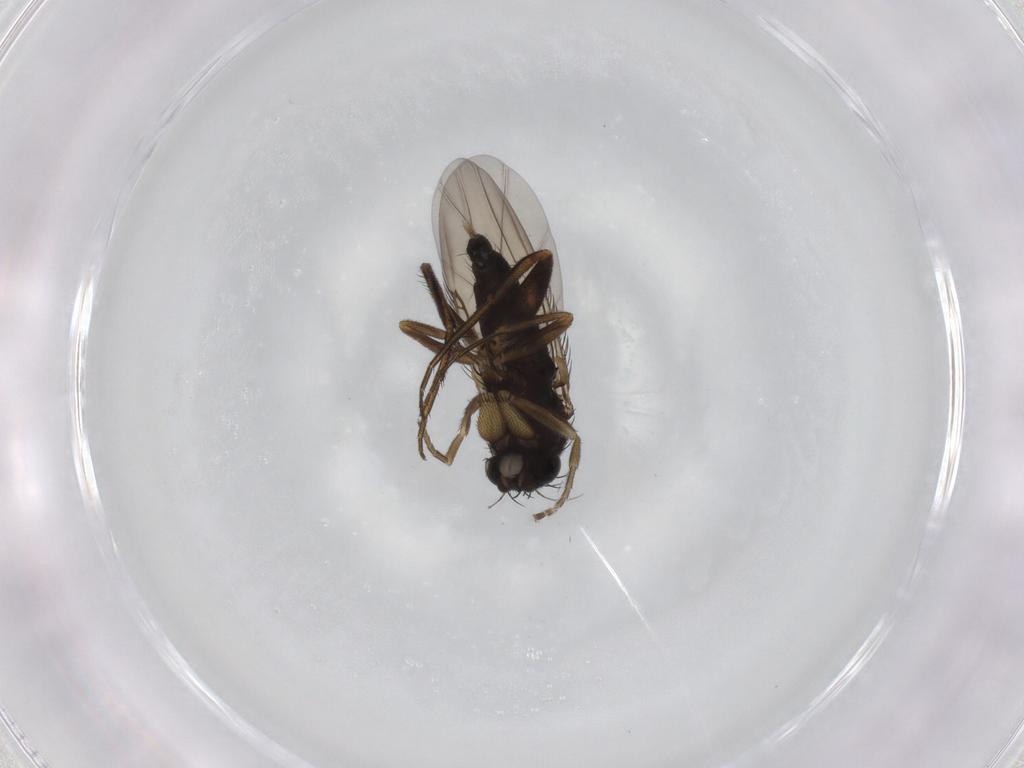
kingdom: Animalia
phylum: Arthropoda
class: Insecta
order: Diptera
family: Phoridae
